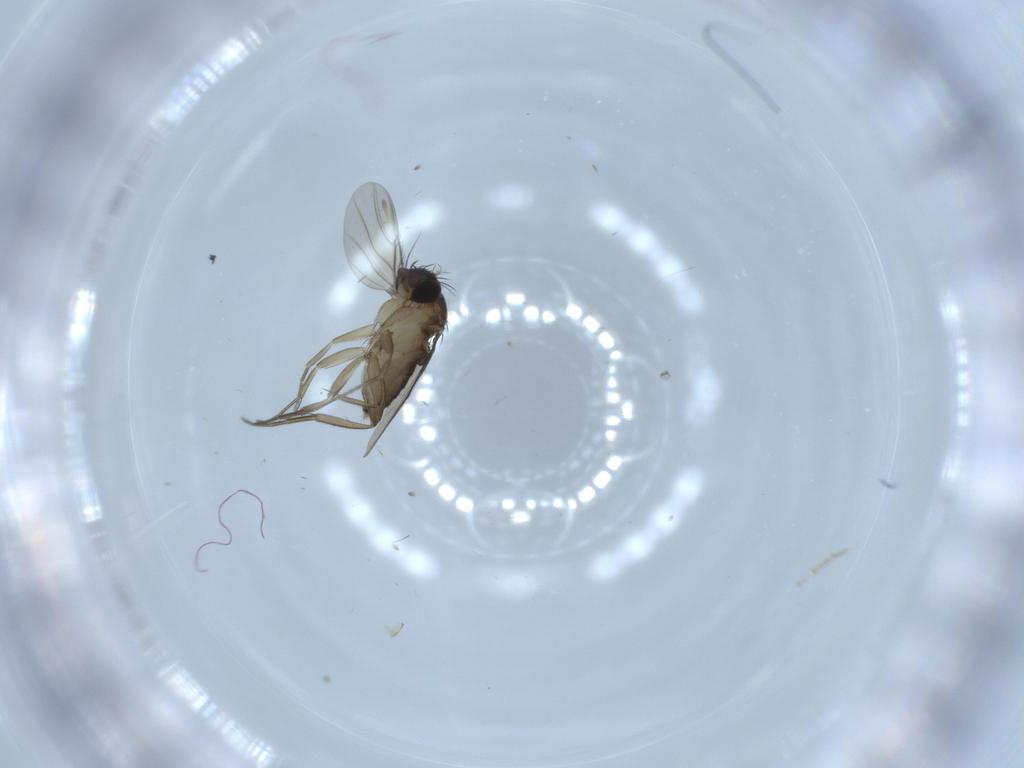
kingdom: Animalia
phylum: Arthropoda
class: Insecta
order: Diptera
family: Phoridae
